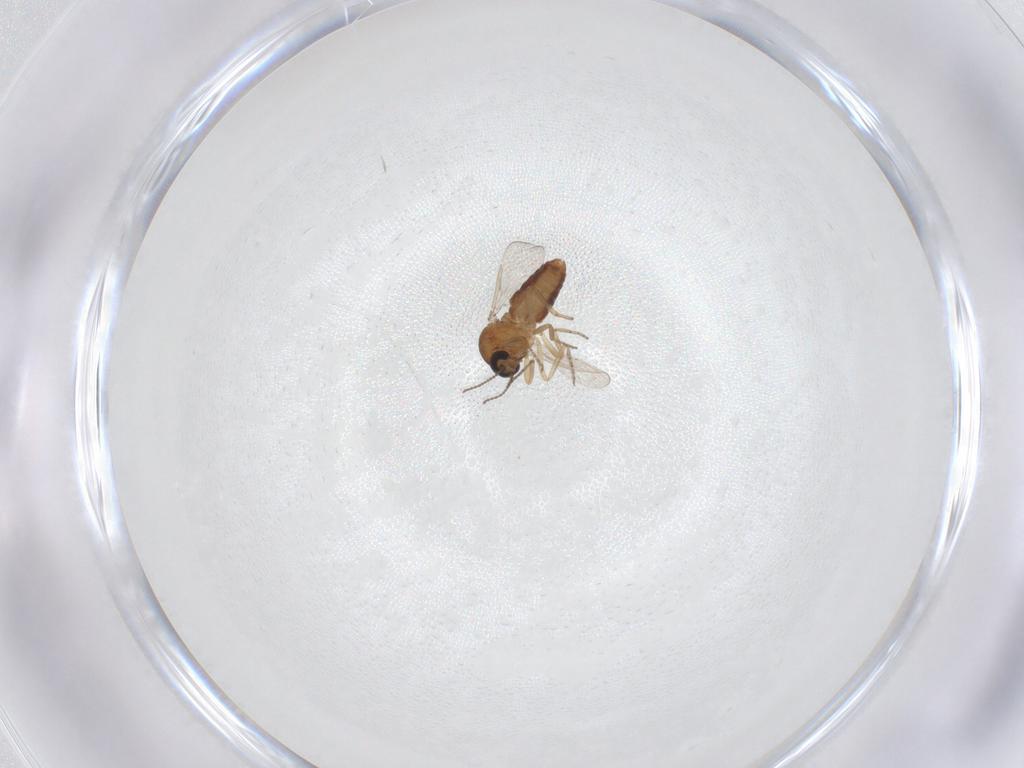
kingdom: Animalia
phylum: Arthropoda
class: Insecta
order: Diptera
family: Ceratopogonidae
